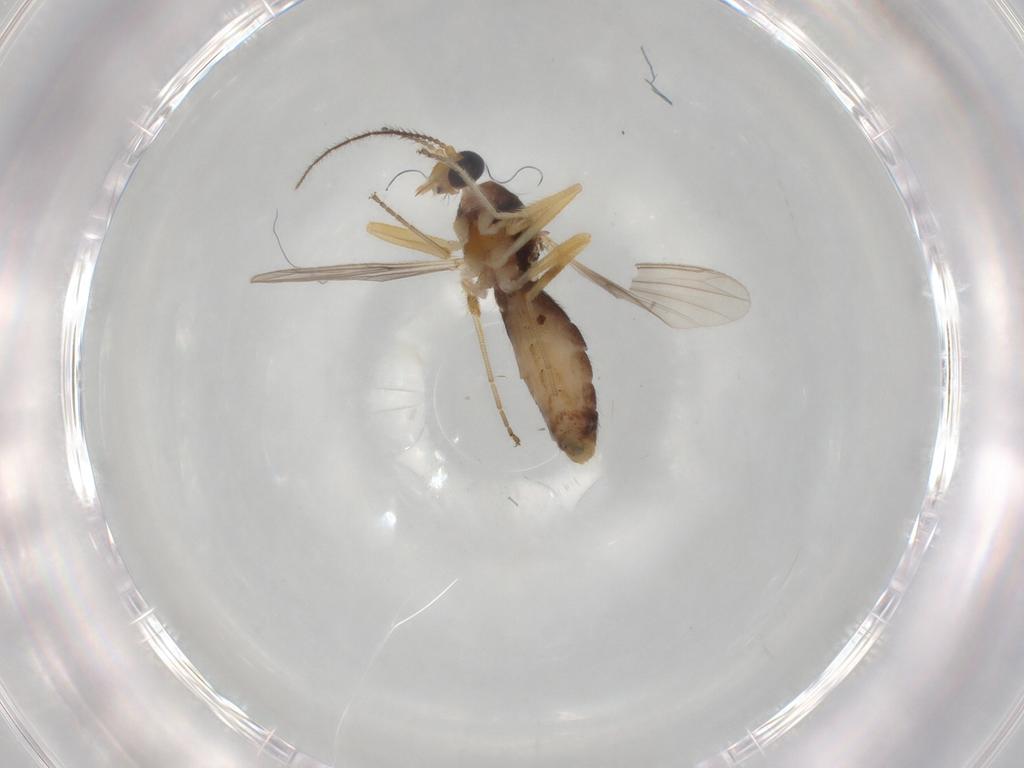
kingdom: Animalia
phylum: Arthropoda
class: Insecta
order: Diptera
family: Ceratopogonidae
